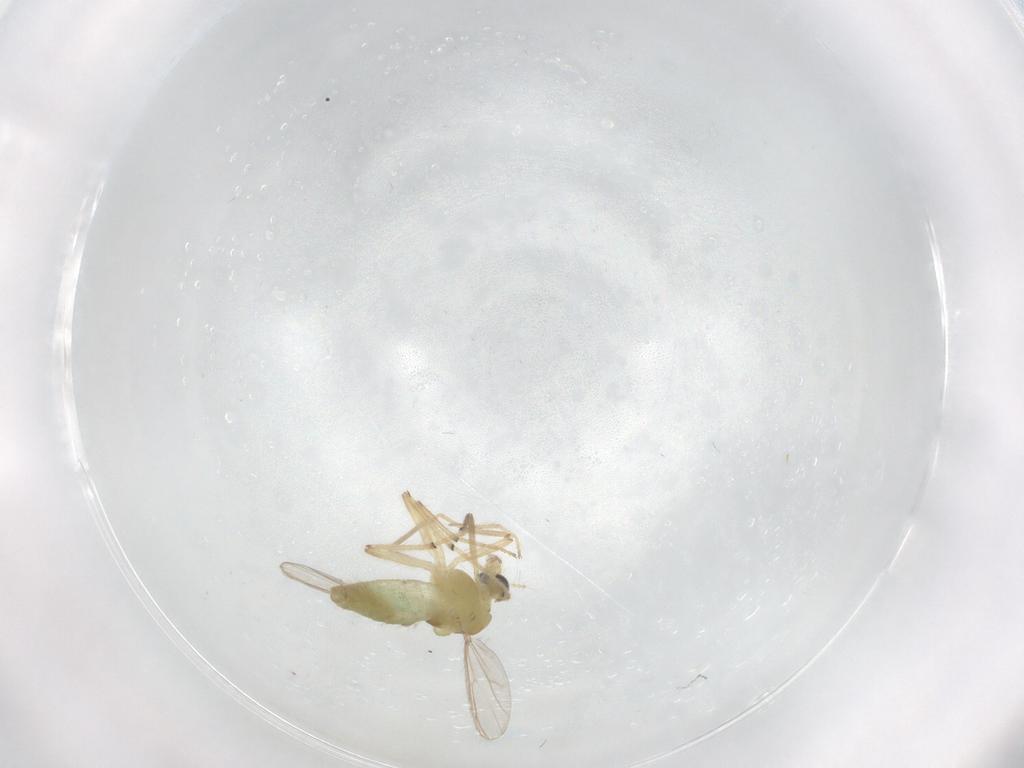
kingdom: Animalia
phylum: Arthropoda
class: Insecta
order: Diptera
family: Chironomidae
